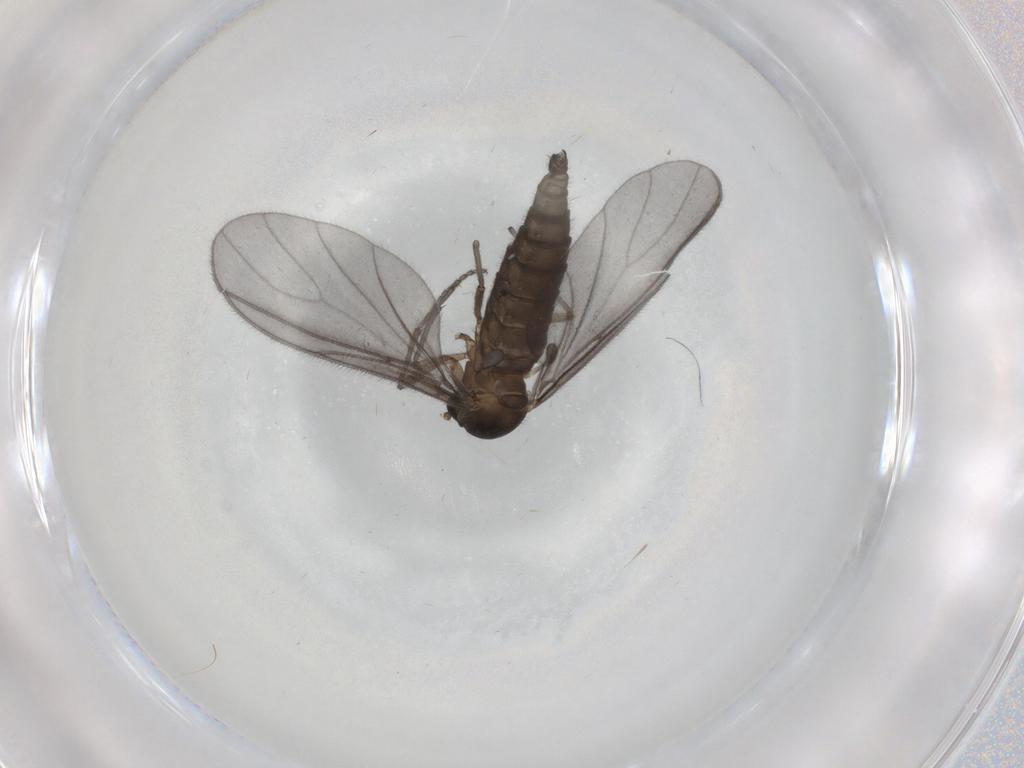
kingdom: Animalia
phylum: Arthropoda
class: Insecta
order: Diptera
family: Sciaridae
